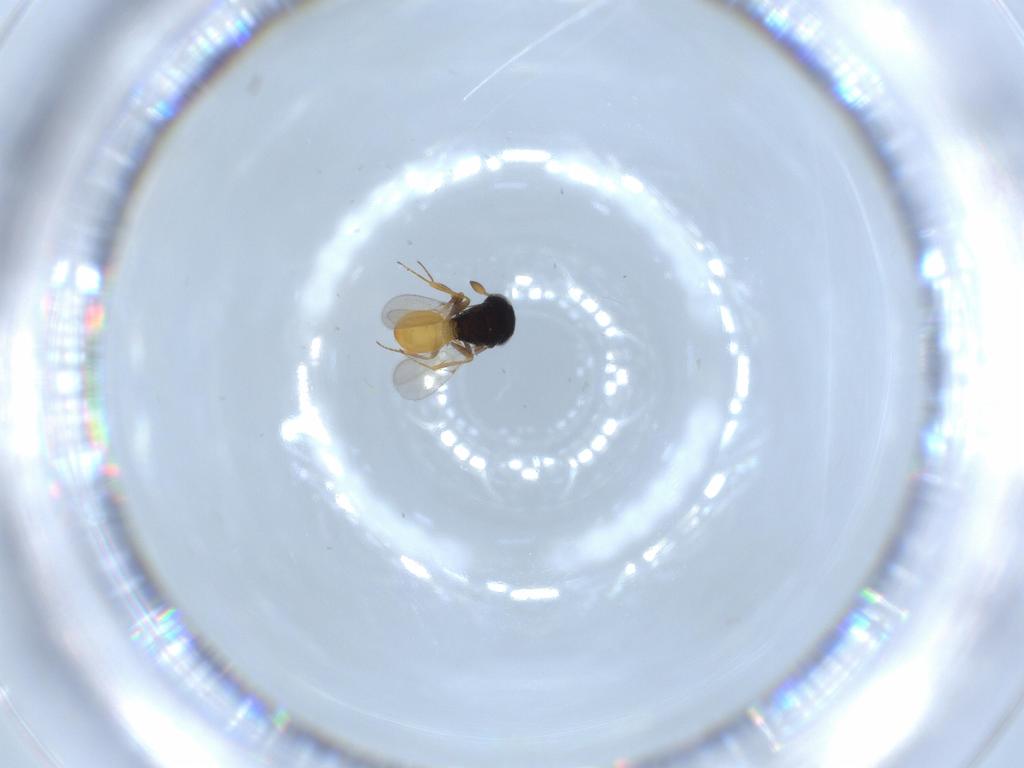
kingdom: Animalia
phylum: Arthropoda
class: Insecta
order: Hymenoptera
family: Scelionidae
